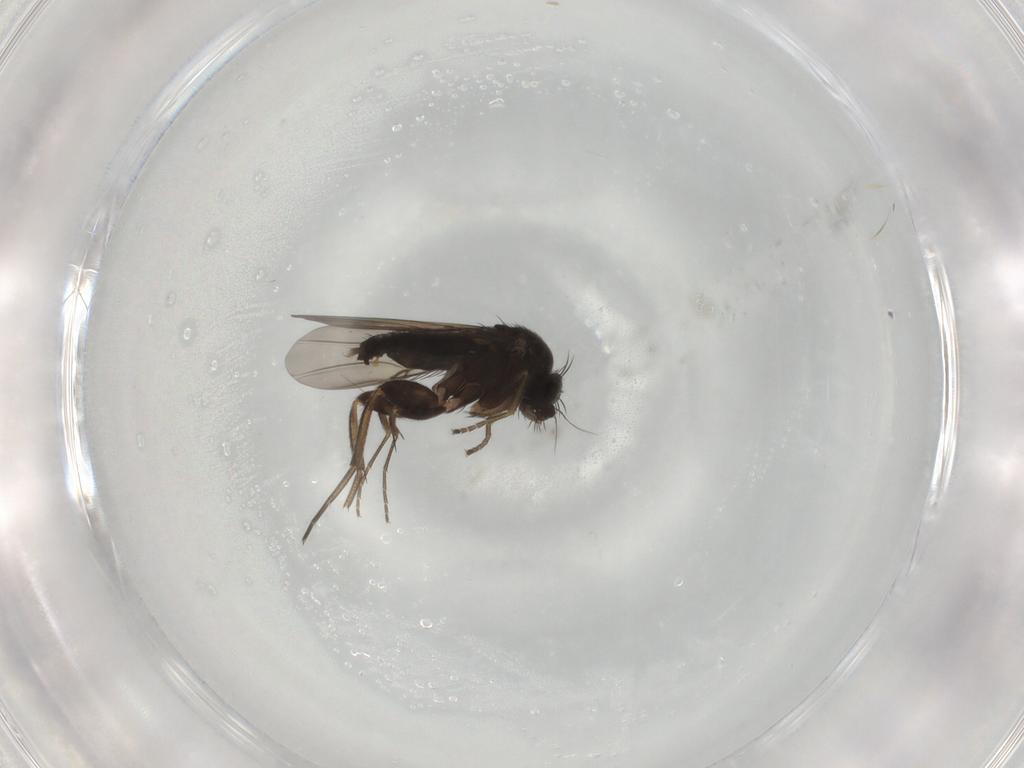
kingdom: Animalia
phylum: Arthropoda
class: Insecta
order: Diptera
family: Phoridae
